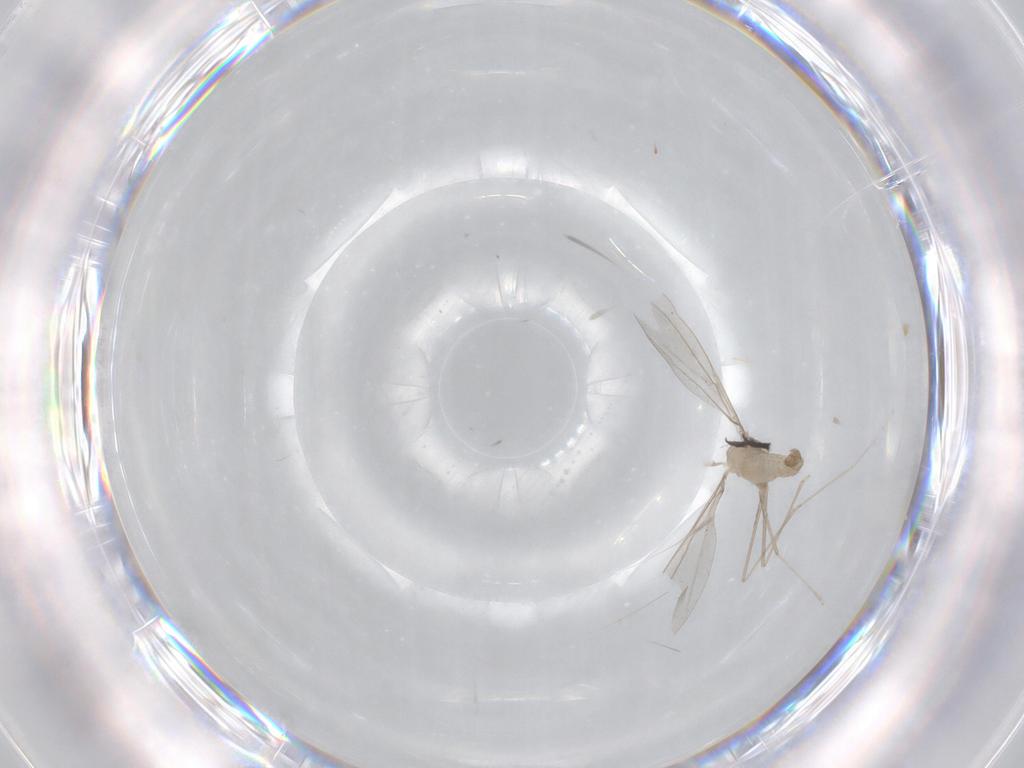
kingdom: Animalia
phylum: Arthropoda
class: Insecta
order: Diptera
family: Cecidomyiidae
